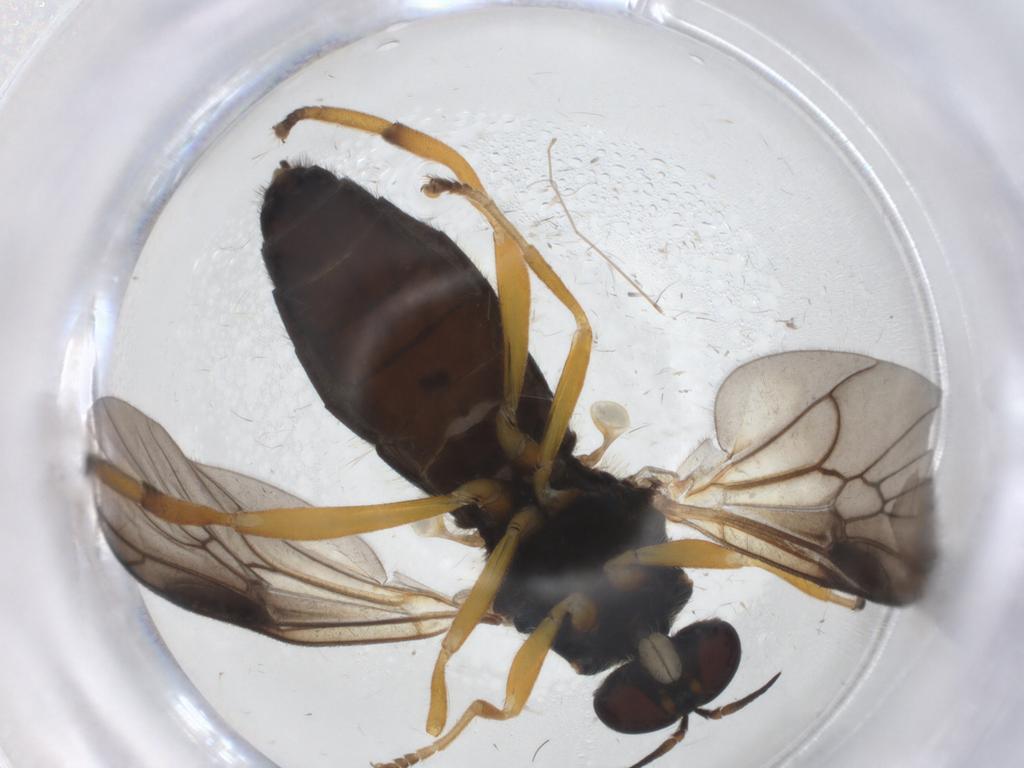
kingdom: Animalia
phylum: Arthropoda
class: Insecta
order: Diptera
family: Stratiomyidae
